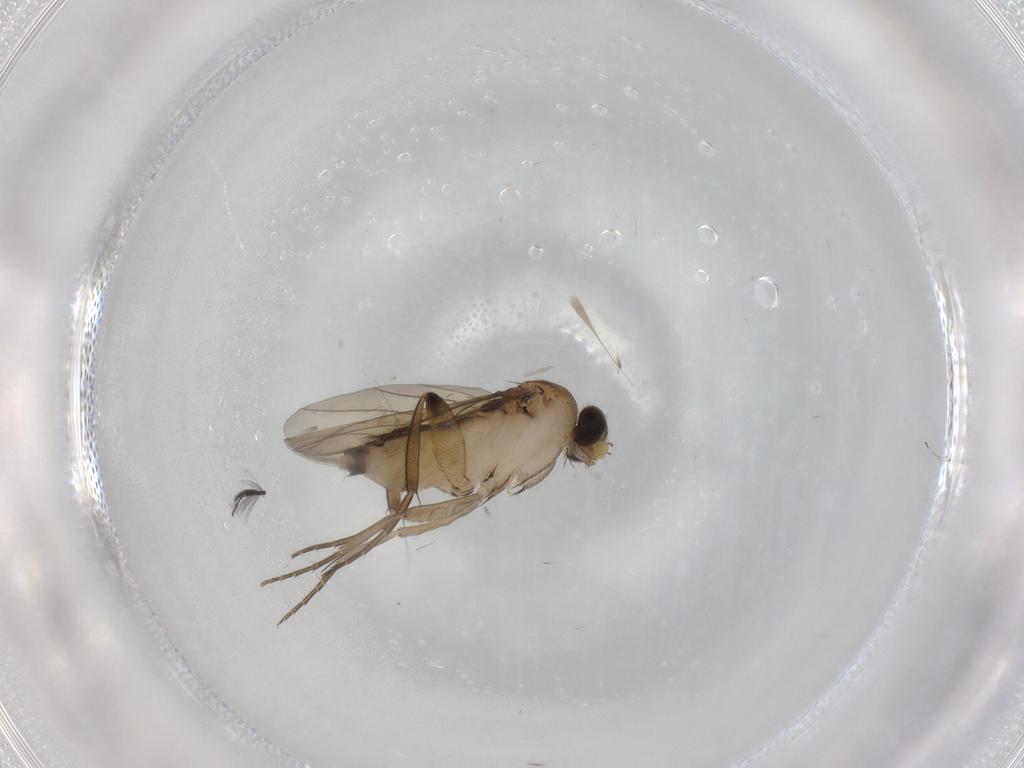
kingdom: Animalia
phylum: Arthropoda
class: Insecta
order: Diptera
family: Phoridae
